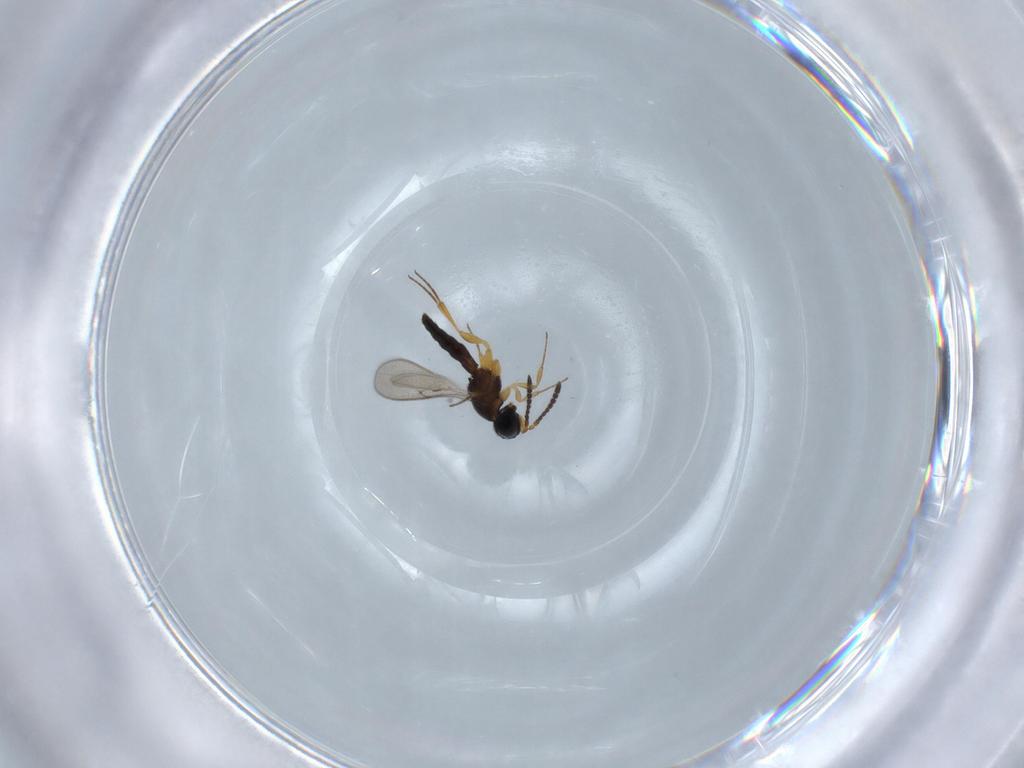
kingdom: Animalia
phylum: Arthropoda
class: Insecta
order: Hymenoptera
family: Scelionidae
